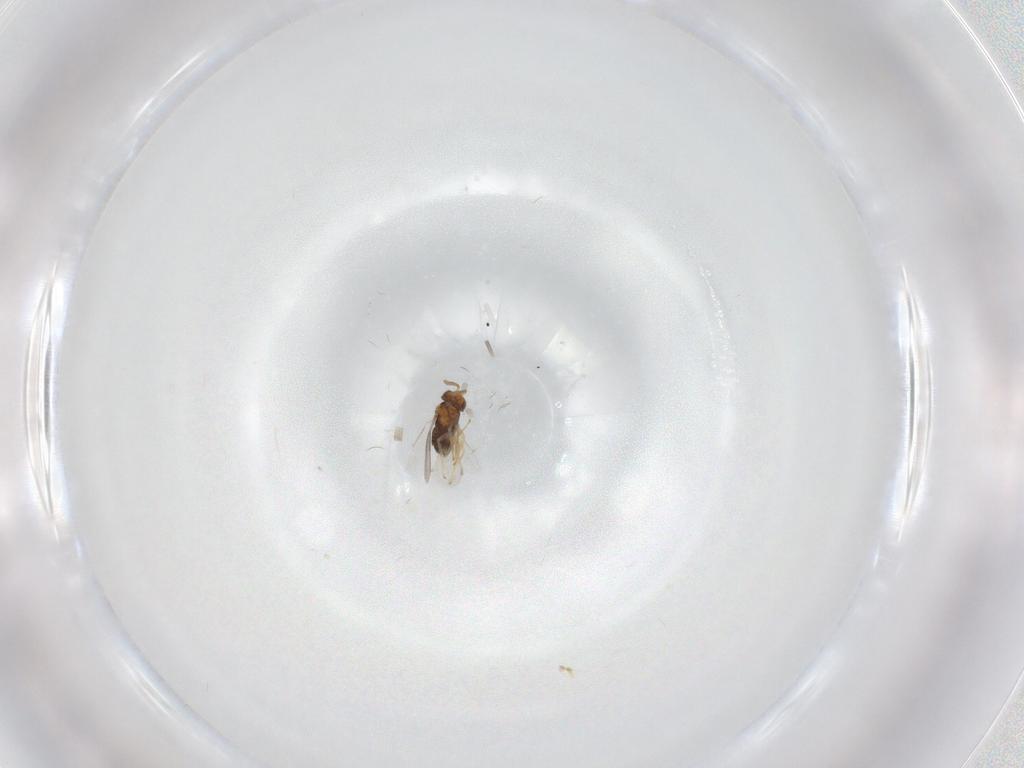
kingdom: Animalia
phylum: Arthropoda
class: Insecta
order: Hymenoptera
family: Aphelinidae
